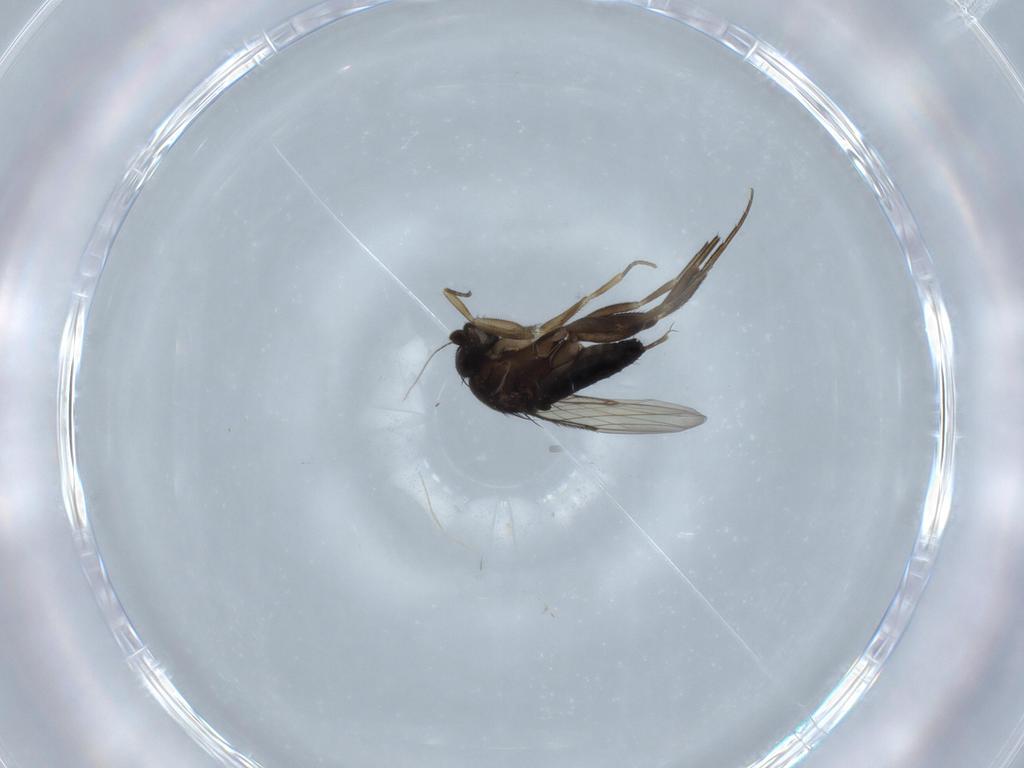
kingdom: Animalia
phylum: Arthropoda
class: Insecta
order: Diptera
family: Phoridae
